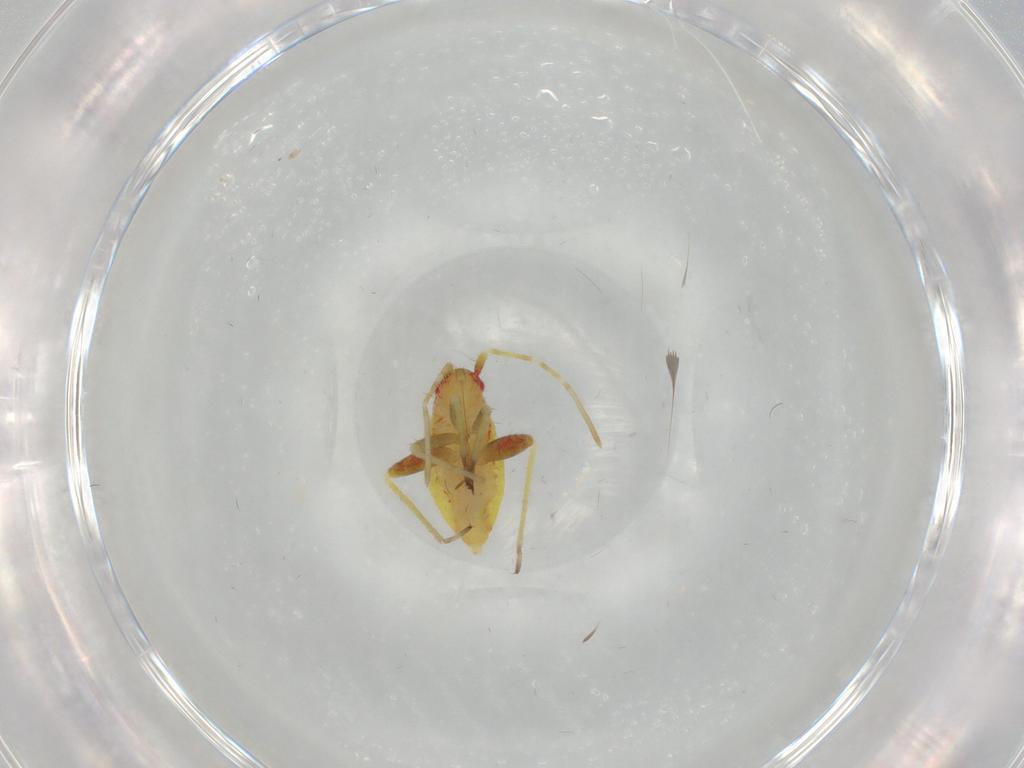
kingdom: Animalia
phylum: Arthropoda
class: Insecta
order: Hemiptera
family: Miridae
